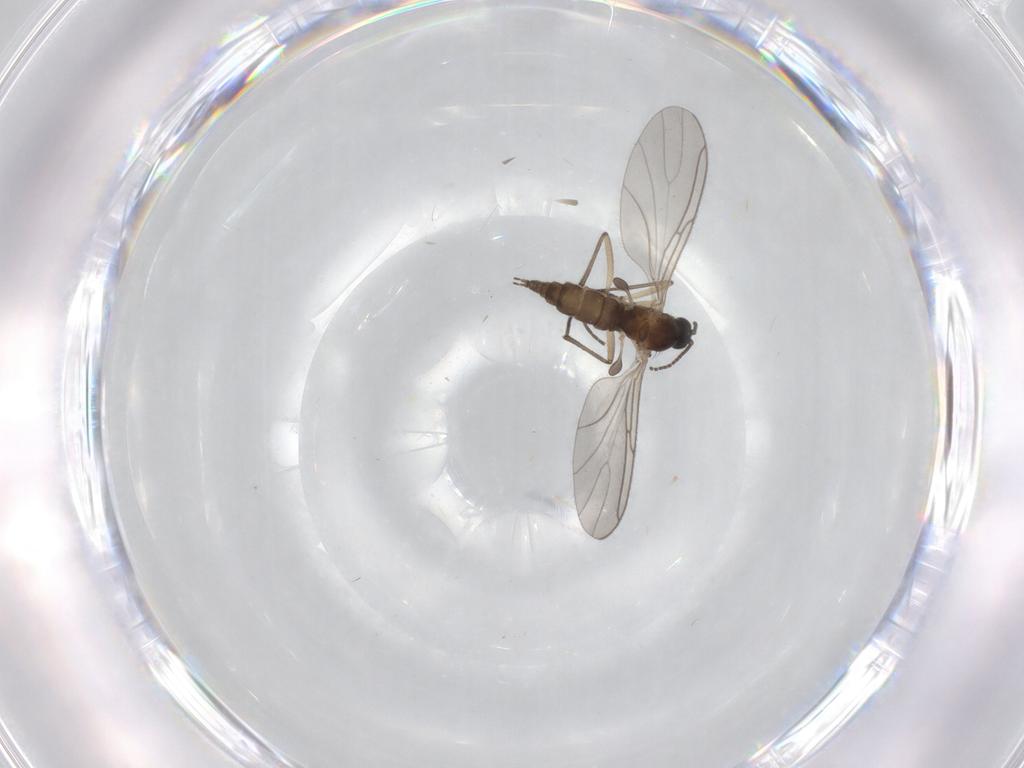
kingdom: Animalia
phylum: Arthropoda
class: Insecta
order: Diptera
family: Sciaridae
